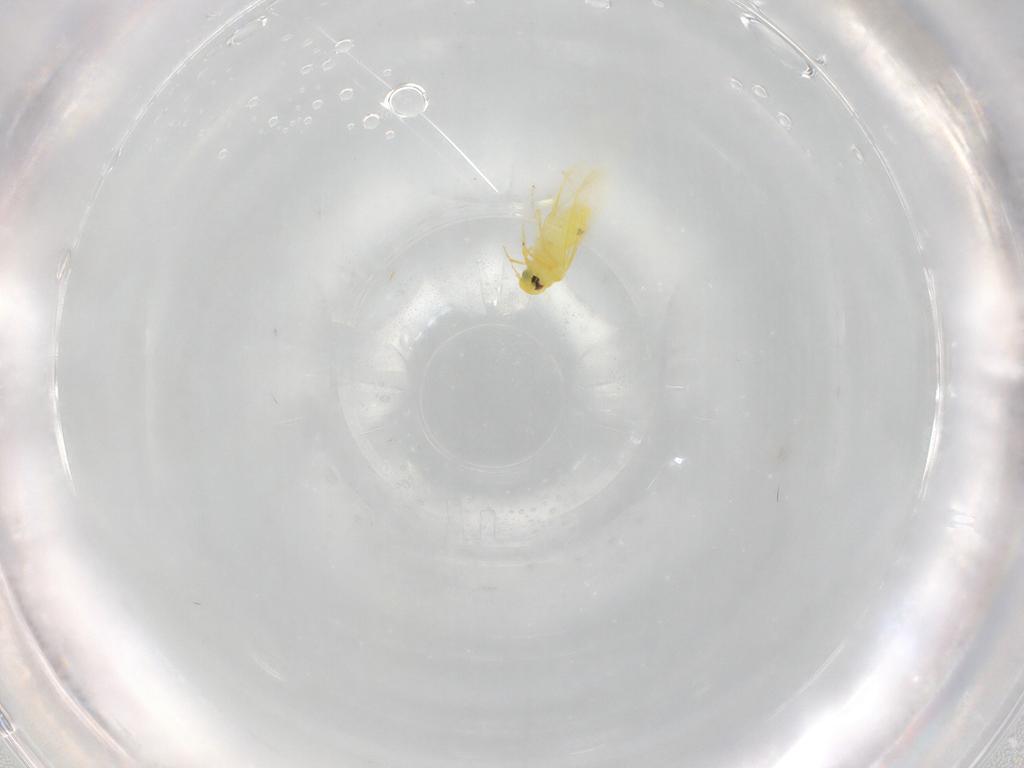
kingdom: Animalia
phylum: Arthropoda
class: Insecta
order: Hemiptera
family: Aleyrodidae
